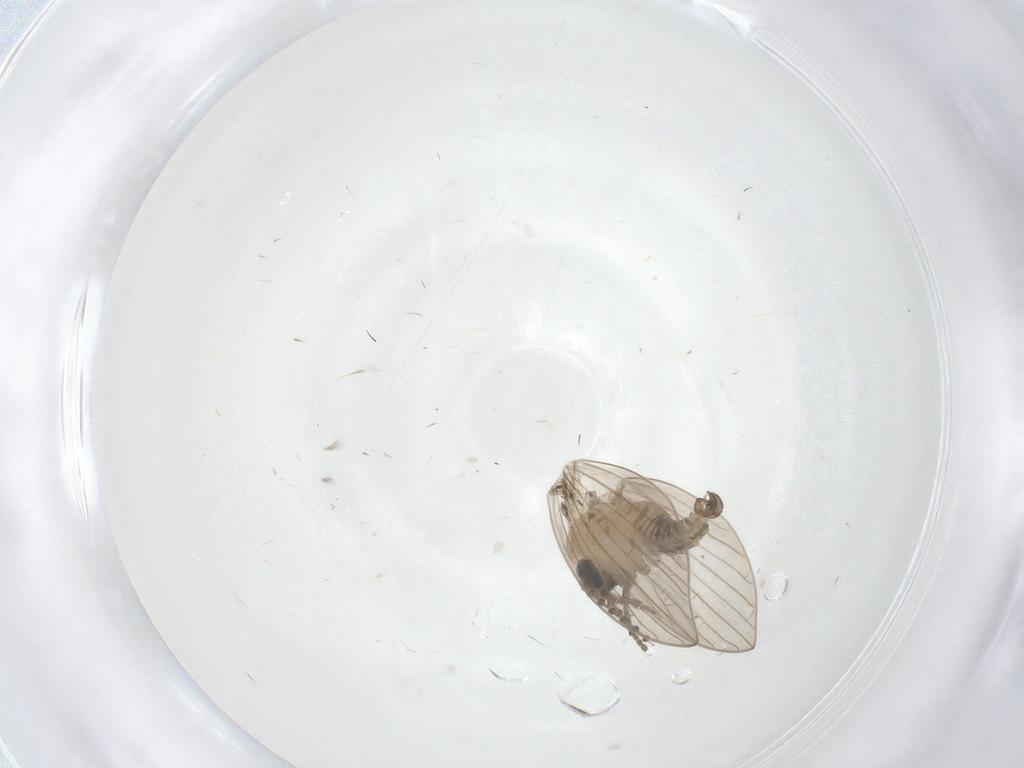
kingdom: Animalia
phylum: Arthropoda
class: Insecta
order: Diptera
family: Psychodidae
